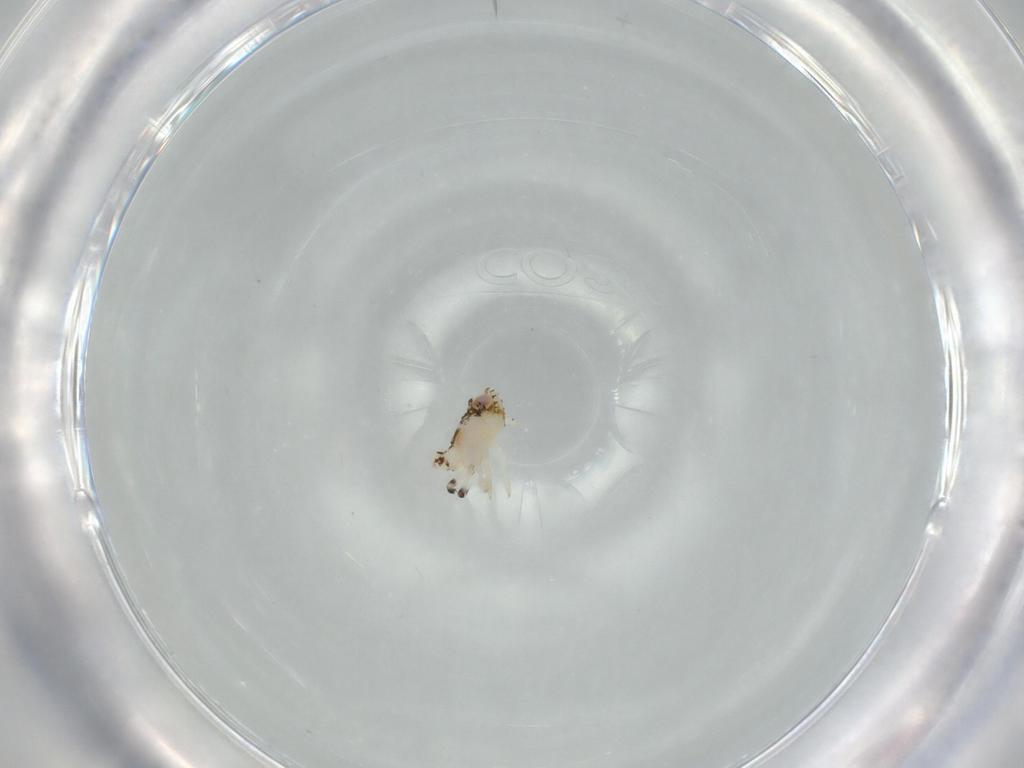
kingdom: Animalia
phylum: Arthropoda
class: Insecta
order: Hemiptera
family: Nogodinidae
